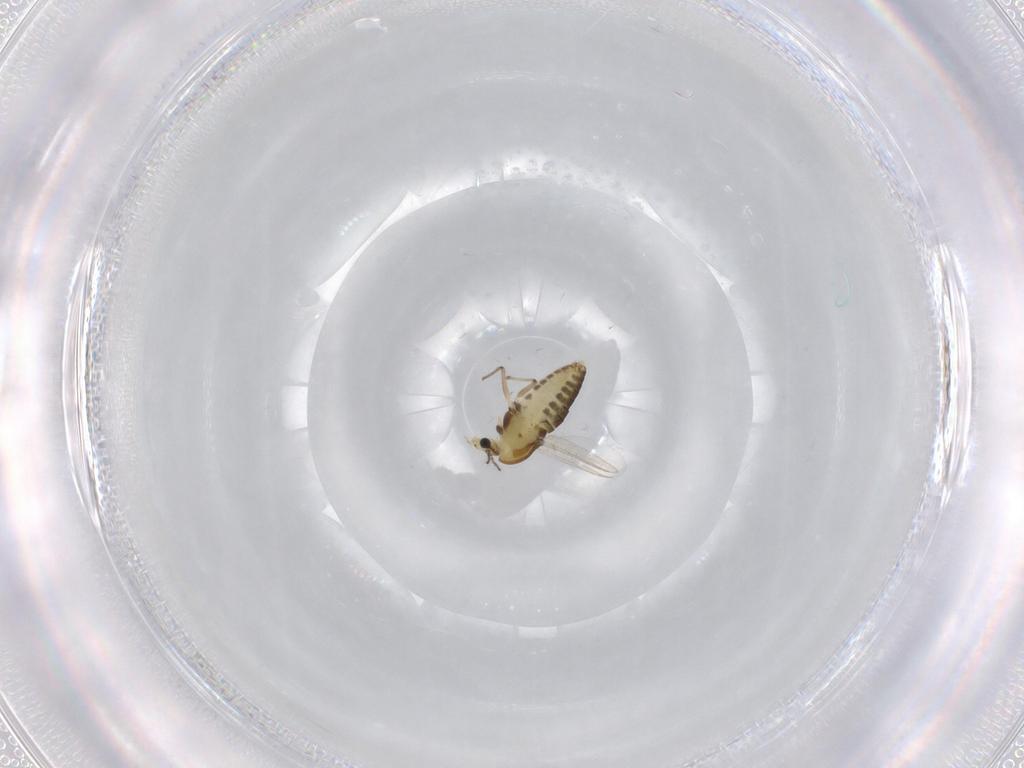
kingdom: Animalia
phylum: Arthropoda
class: Insecta
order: Diptera
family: Chironomidae
